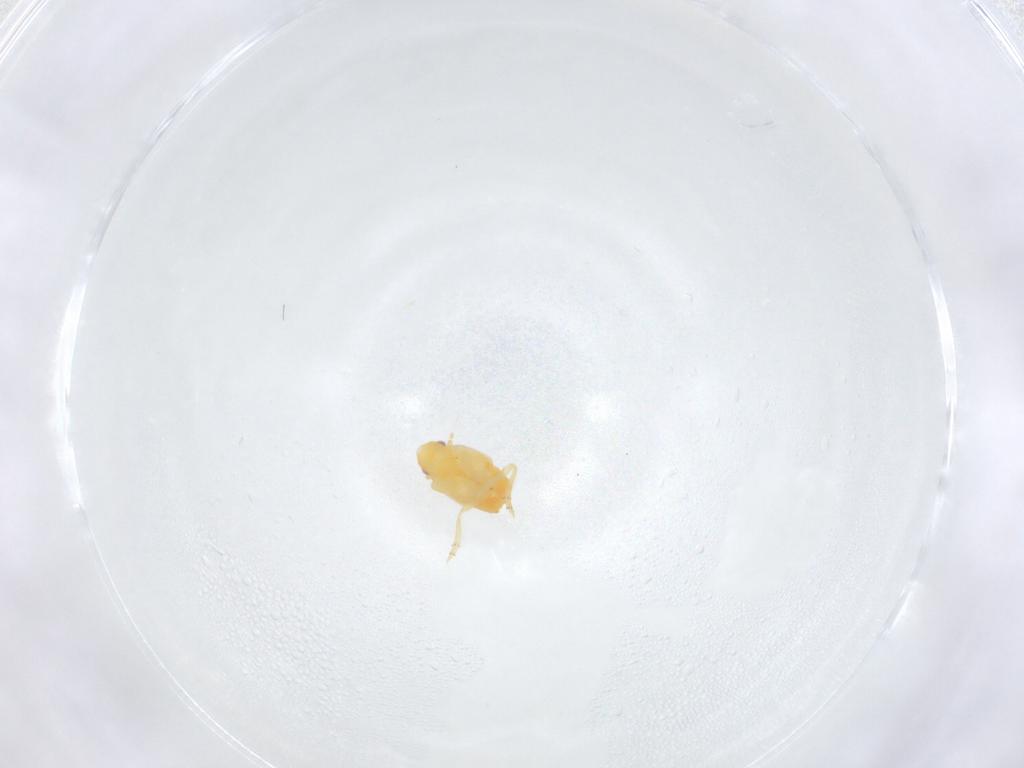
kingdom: Animalia
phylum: Arthropoda
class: Insecta
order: Hemiptera
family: Flatidae
